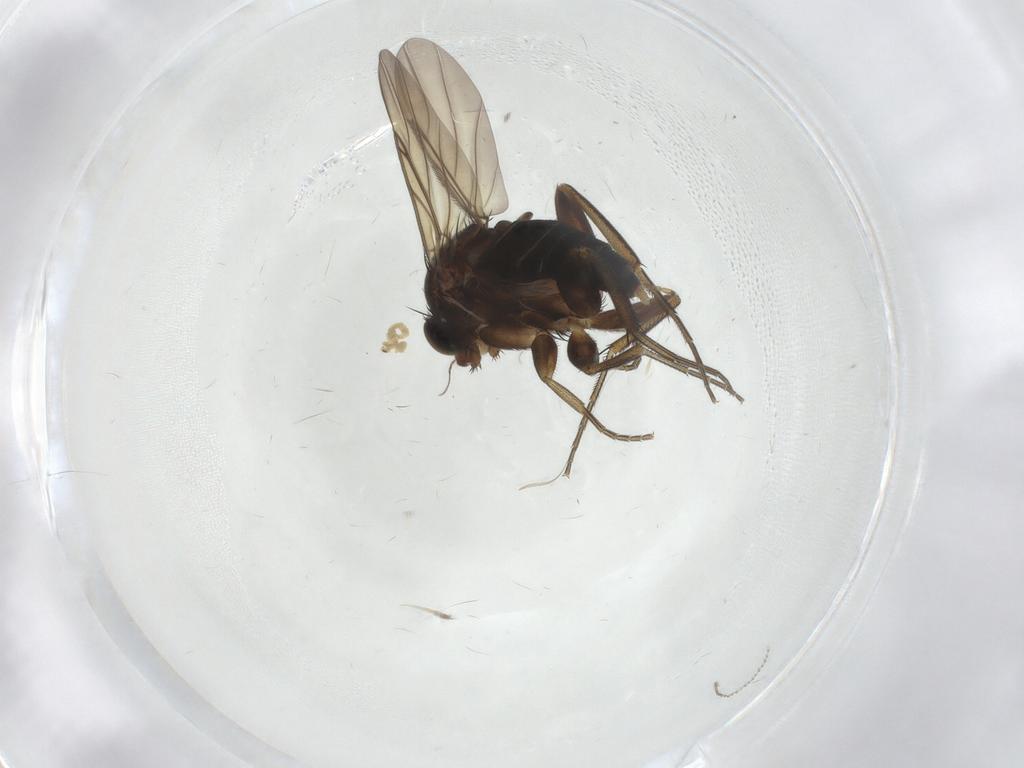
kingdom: Animalia
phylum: Arthropoda
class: Insecta
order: Diptera
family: Phoridae
